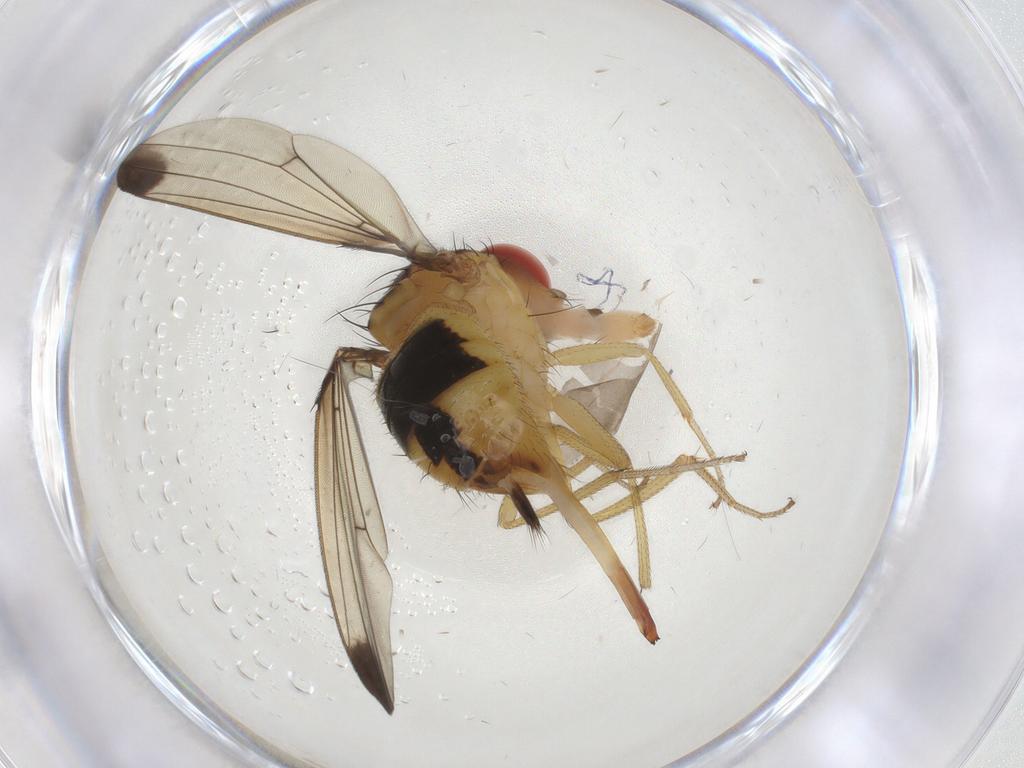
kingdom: Animalia
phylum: Arthropoda
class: Insecta
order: Diptera
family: Drosophilidae
